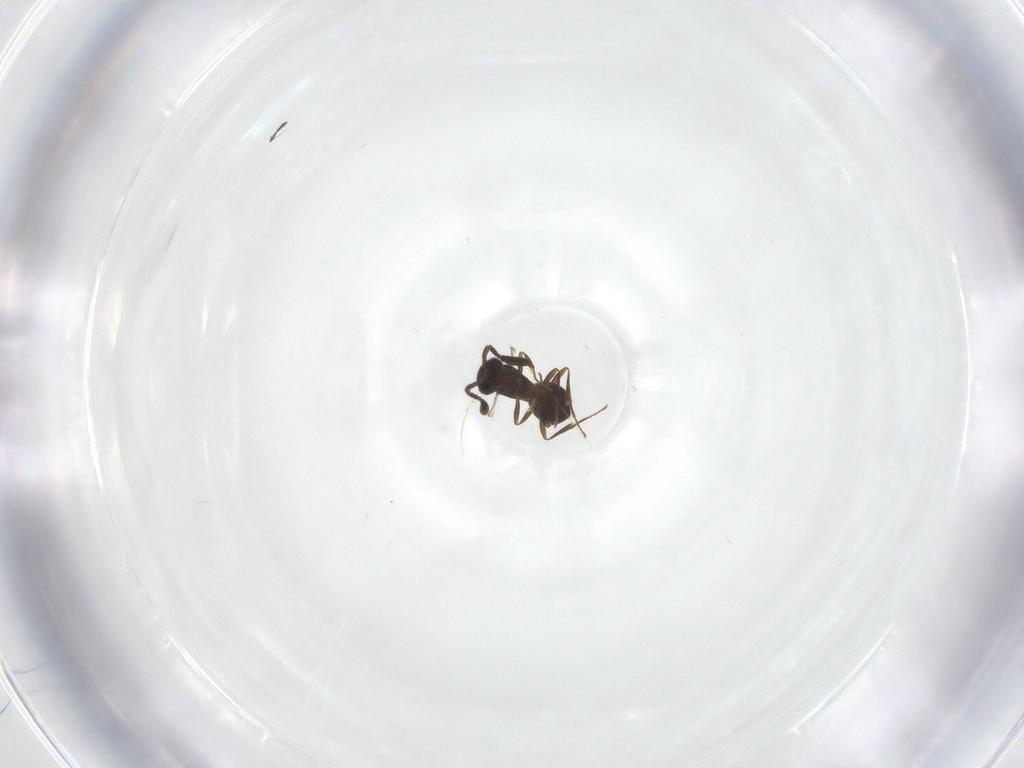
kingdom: Animalia
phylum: Arthropoda
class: Insecta
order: Hymenoptera
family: Scelionidae
